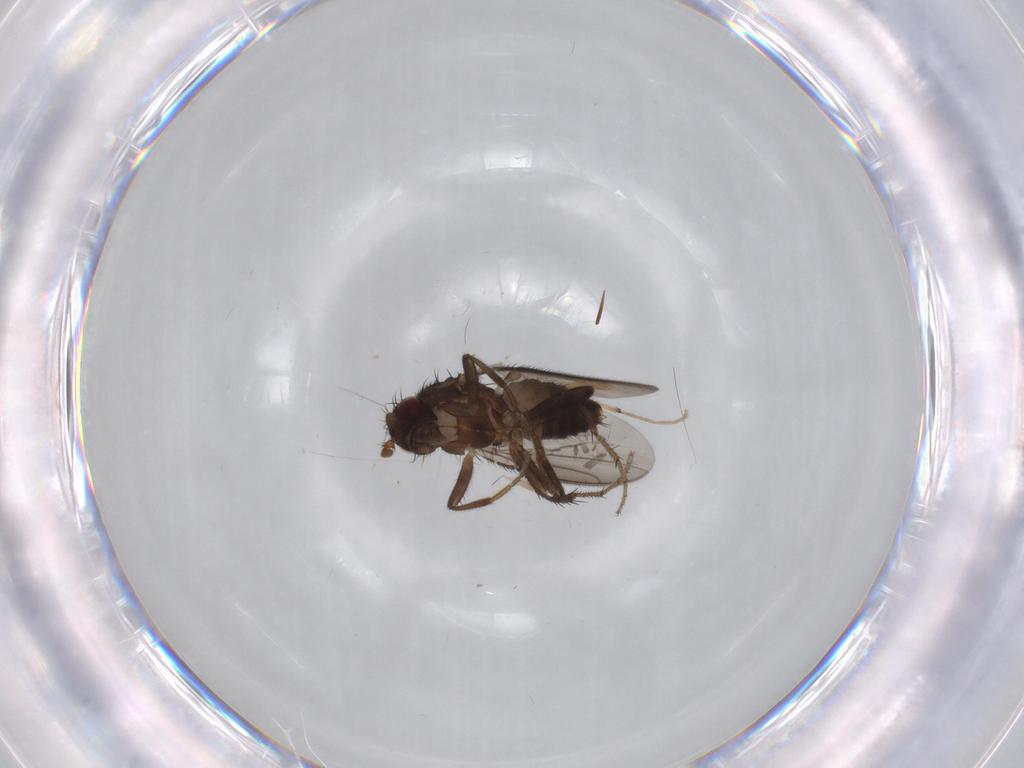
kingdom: Animalia
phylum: Arthropoda
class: Insecta
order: Diptera
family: Sphaeroceridae
